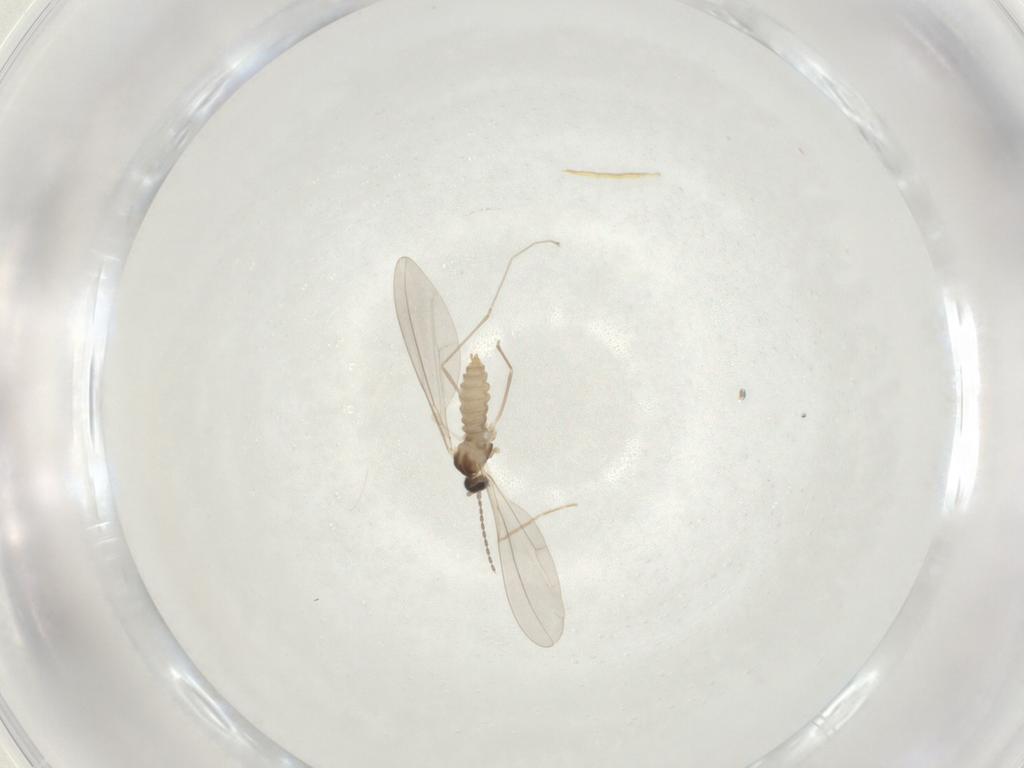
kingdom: Animalia
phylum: Arthropoda
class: Insecta
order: Diptera
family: Cecidomyiidae
